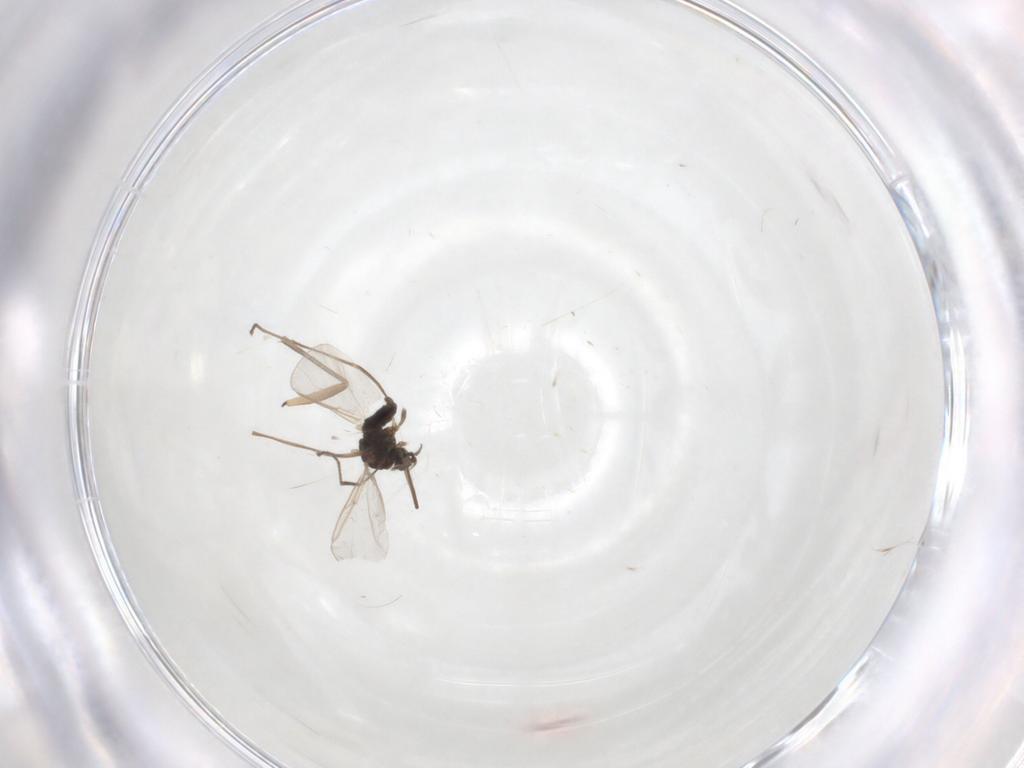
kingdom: Animalia
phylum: Arthropoda
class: Insecta
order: Diptera
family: Cecidomyiidae
